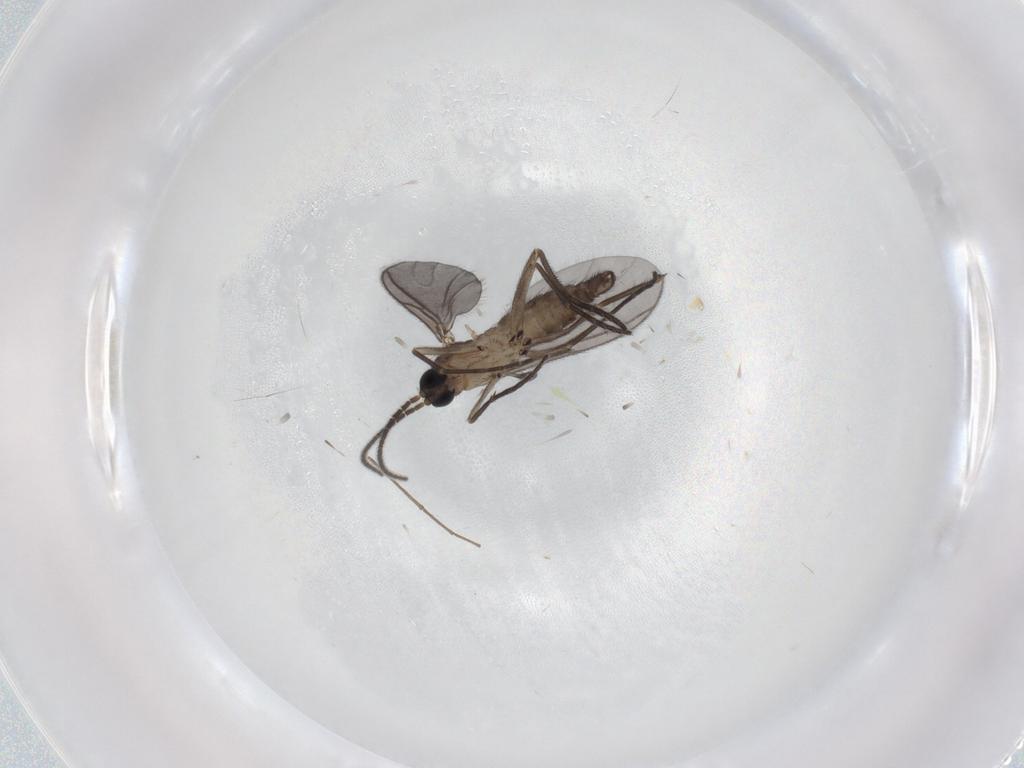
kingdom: Animalia
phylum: Arthropoda
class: Insecta
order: Diptera
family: Sciaridae
